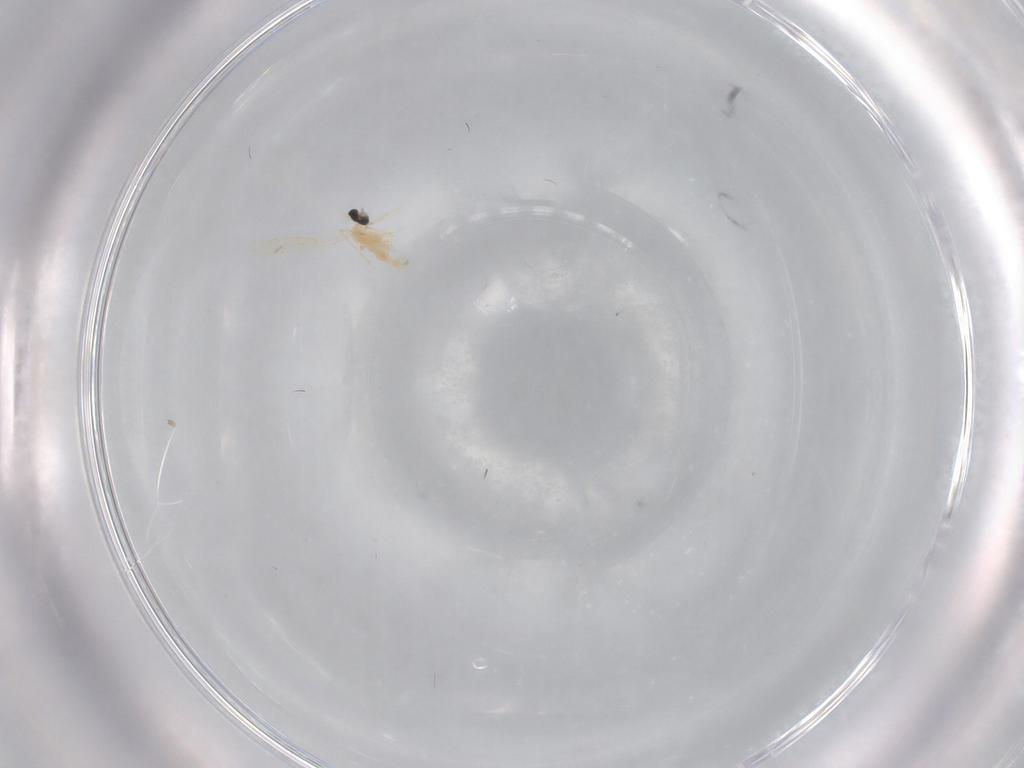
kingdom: Animalia
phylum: Arthropoda
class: Insecta
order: Diptera
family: Cecidomyiidae
